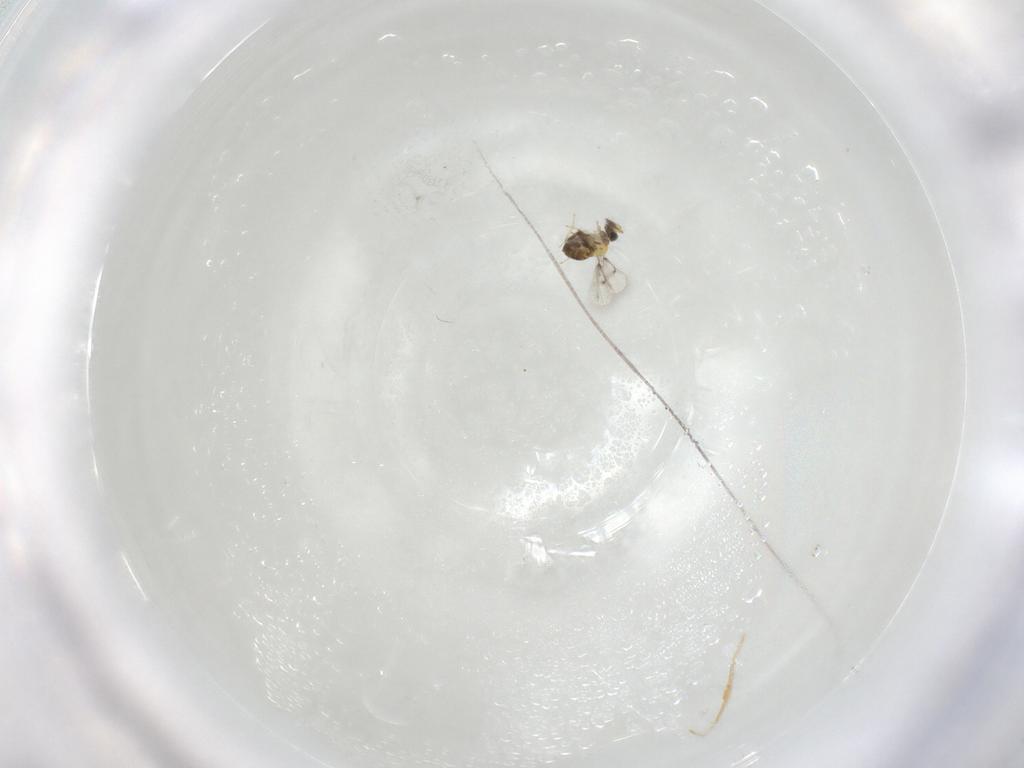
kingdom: Animalia
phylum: Arthropoda
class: Insecta
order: Hymenoptera
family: Trichogrammatidae
